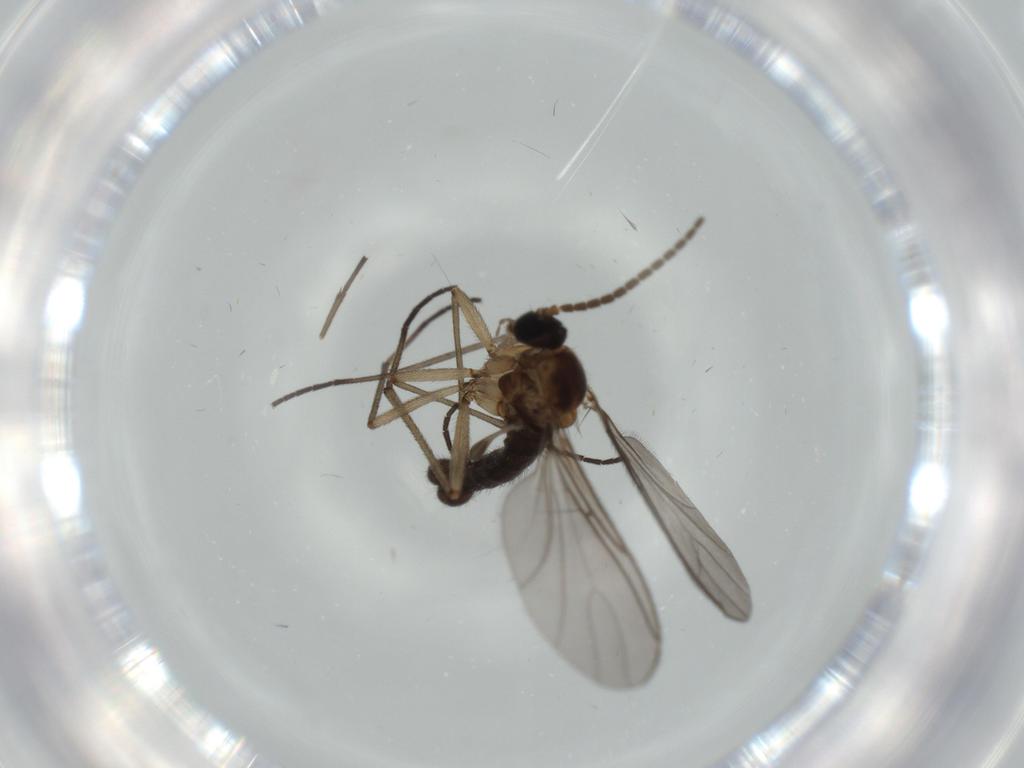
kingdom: Animalia
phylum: Arthropoda
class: Insecta
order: Diptera
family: Sciaridae
